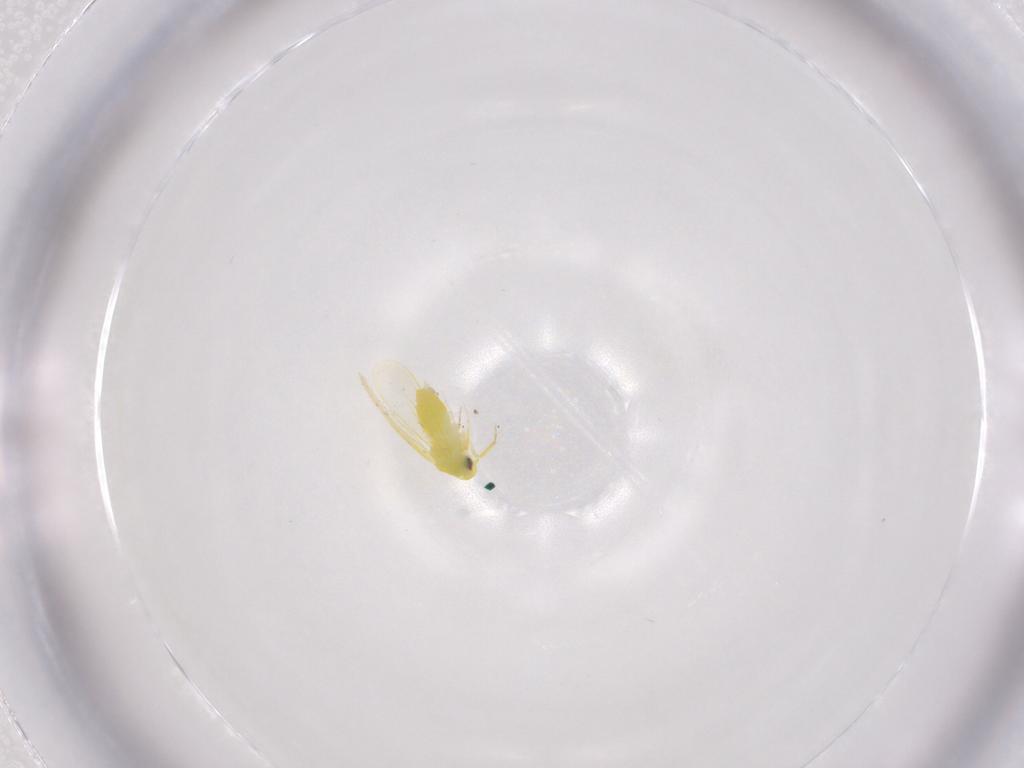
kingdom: Animalia
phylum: Arthropoda
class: Insecta
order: Hemiptera
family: Aleyrodidae
